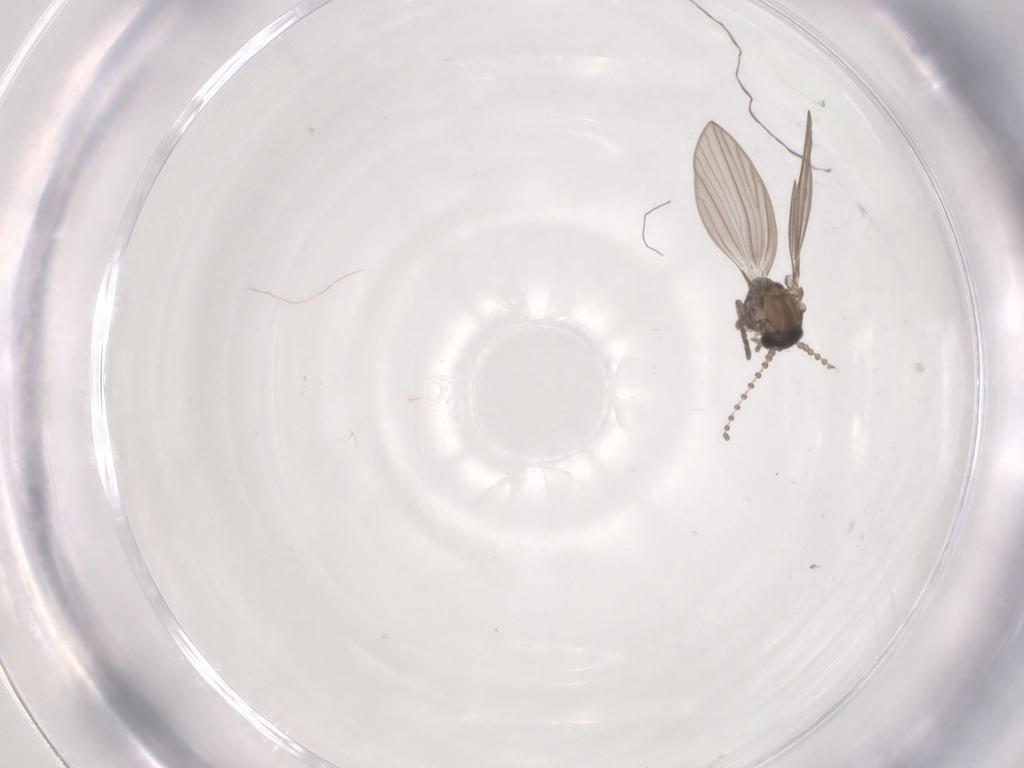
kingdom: Animalia
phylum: Arthropoda
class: Insecta
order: Diptera
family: Psychodidae
